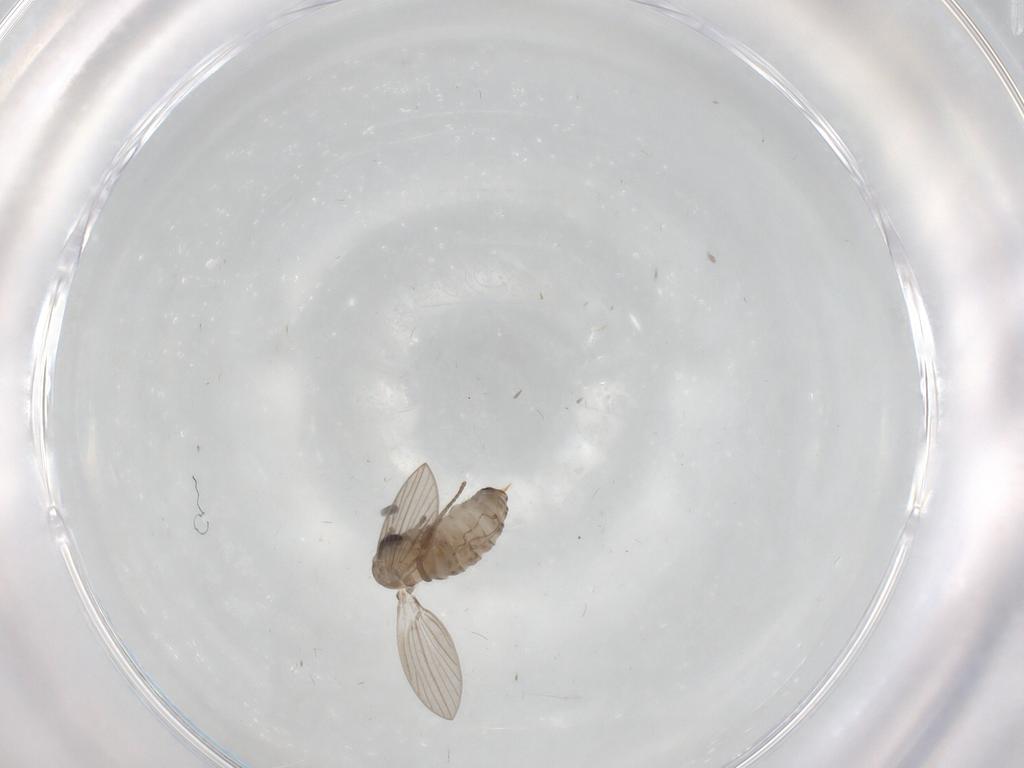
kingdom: Animalia
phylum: Arthropoda
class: Insecta
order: Diptera
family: Psychodidae
